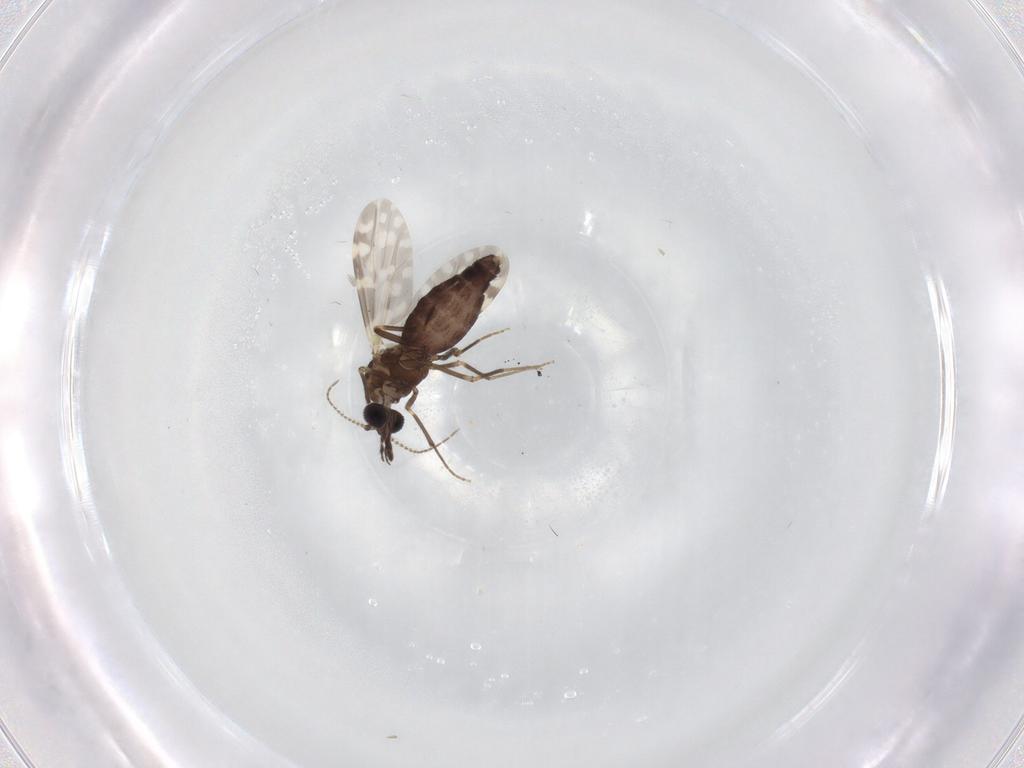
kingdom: Animalia
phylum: Arthropoda
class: Insecta
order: Diptera
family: Ceratopogonidae
